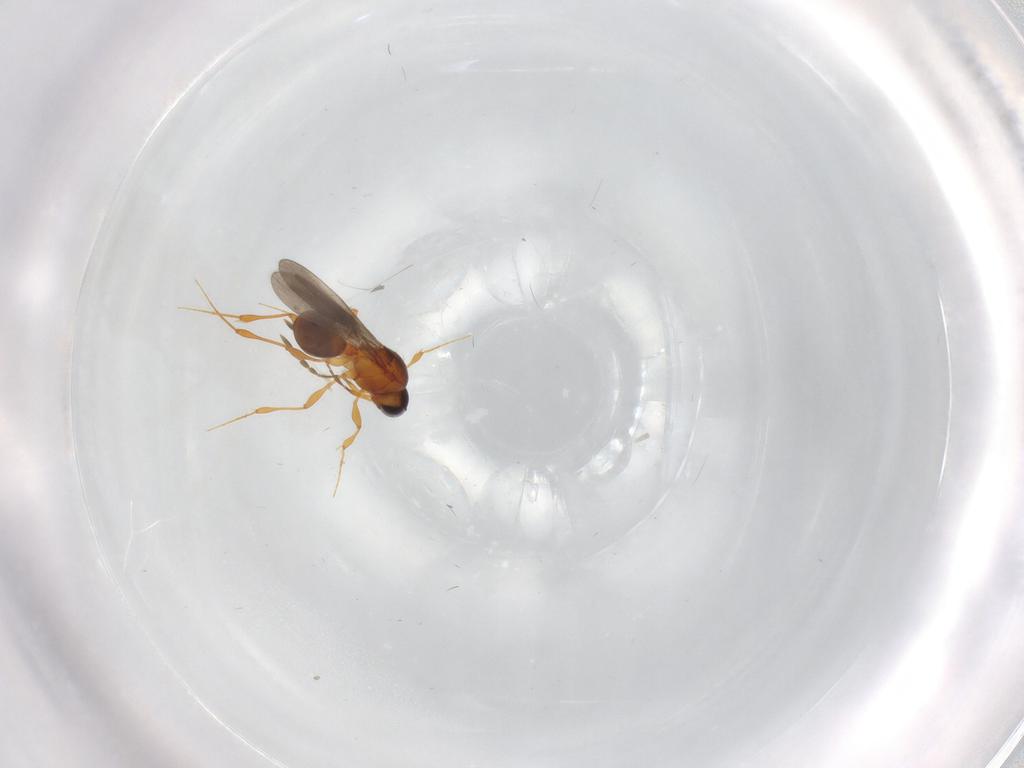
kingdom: Animalia
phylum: Arthropoda
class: Insecta
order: Hymenoptera
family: Platygastridae
